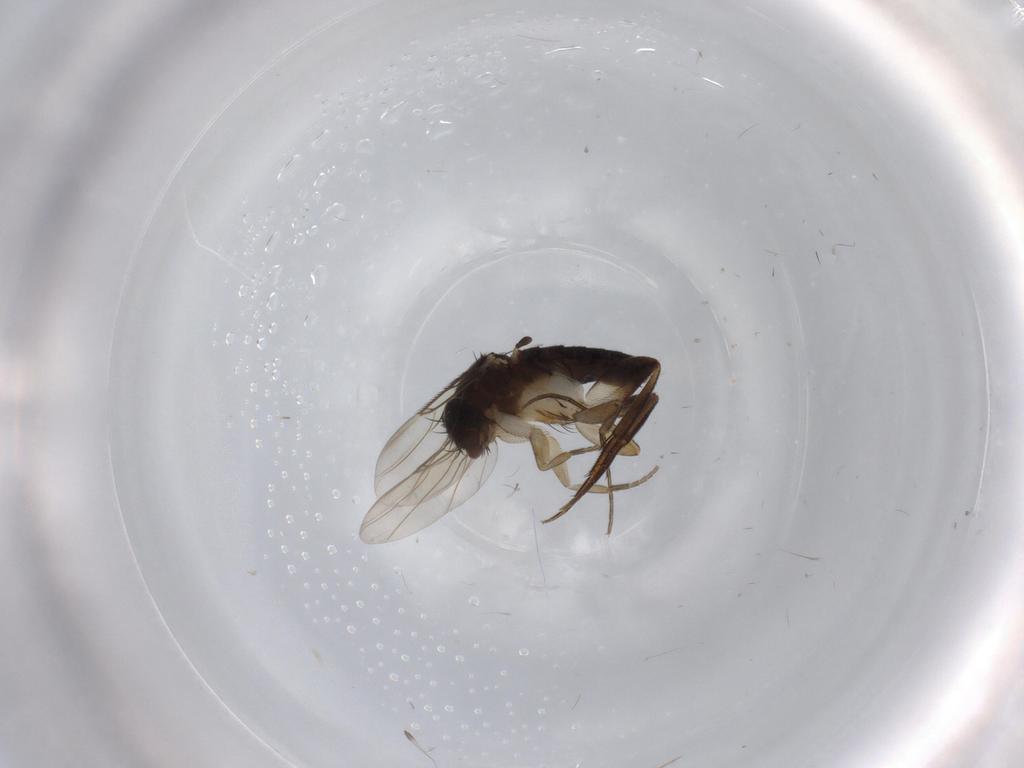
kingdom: Animalia
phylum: Arthropoda
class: Insecta
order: Diptera
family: Phoridae
